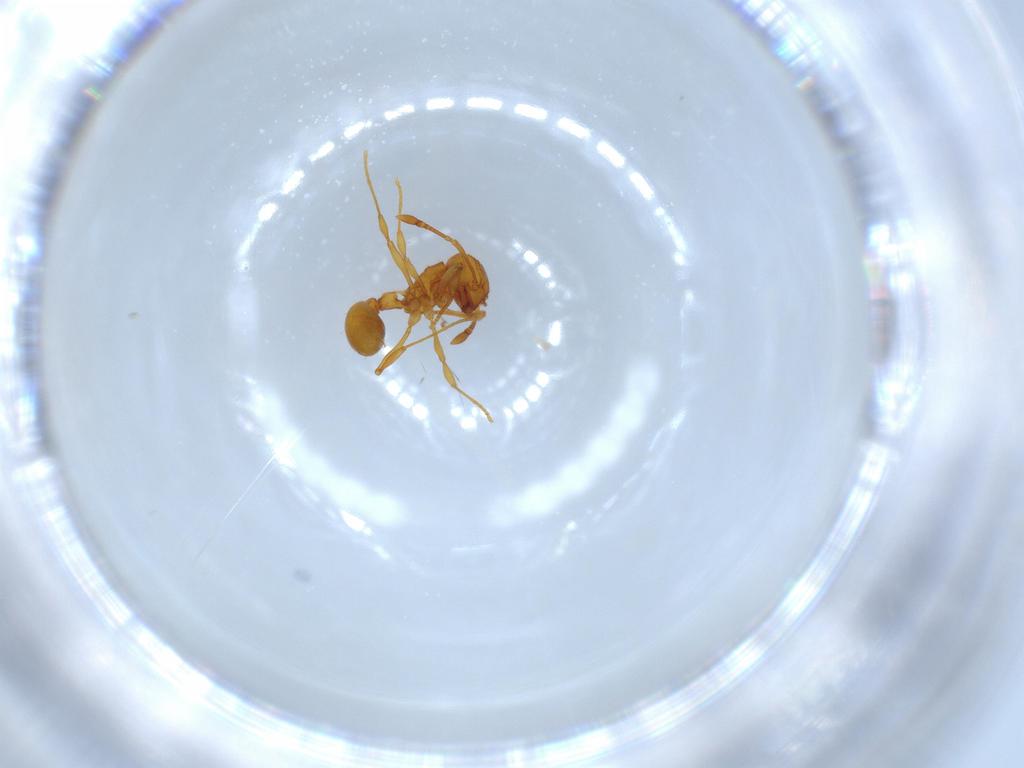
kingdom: Animalia
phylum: Arthropoda
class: Insecta
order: Hymenoptera
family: Formicidae
